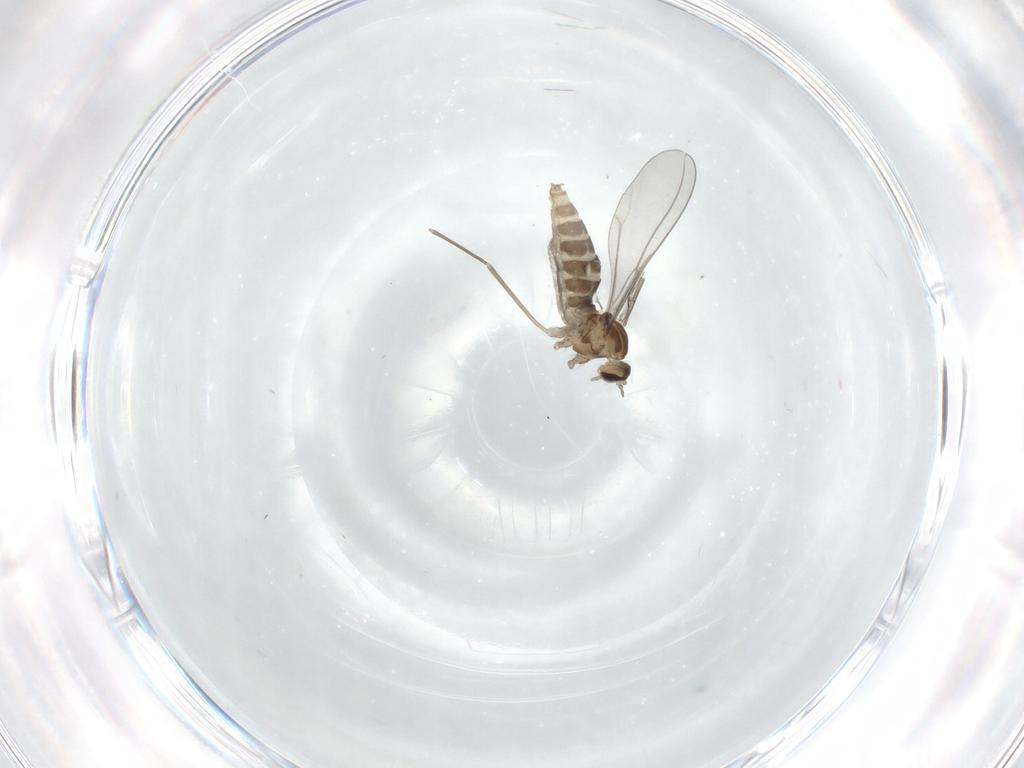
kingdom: Animalia
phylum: Arthropoda
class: Insecta
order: Diptera
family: Cecidomyiidae
